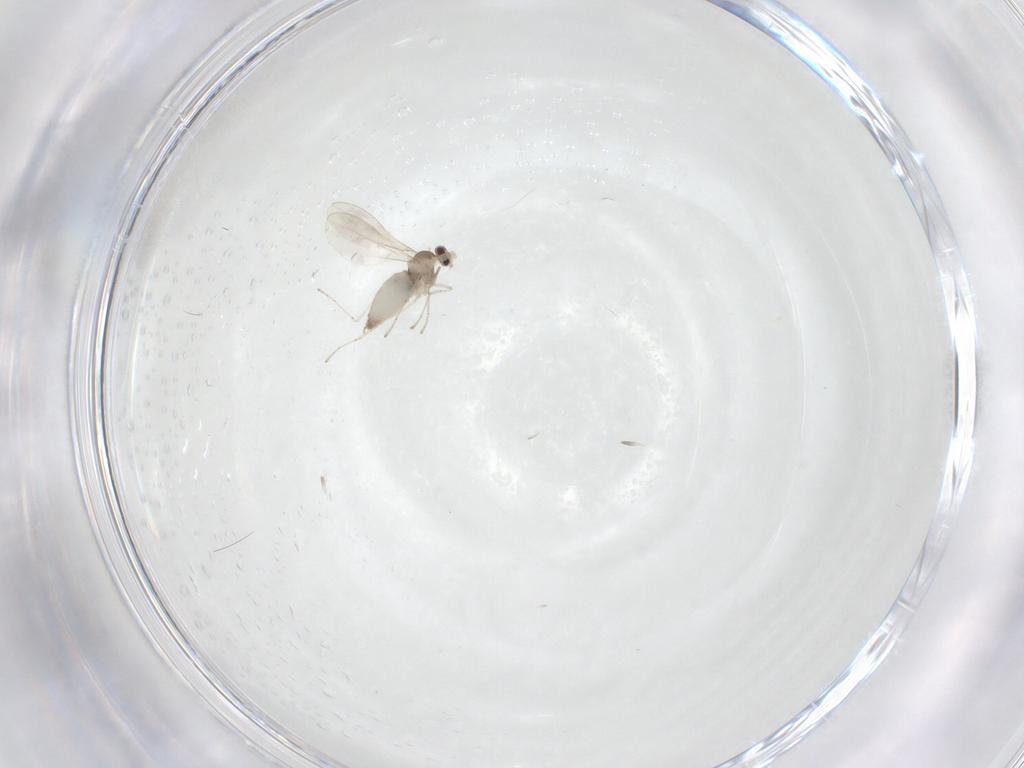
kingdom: Animalia
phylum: Arthropoda
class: Insecta
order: Diptera
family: Cecidomyiidae
